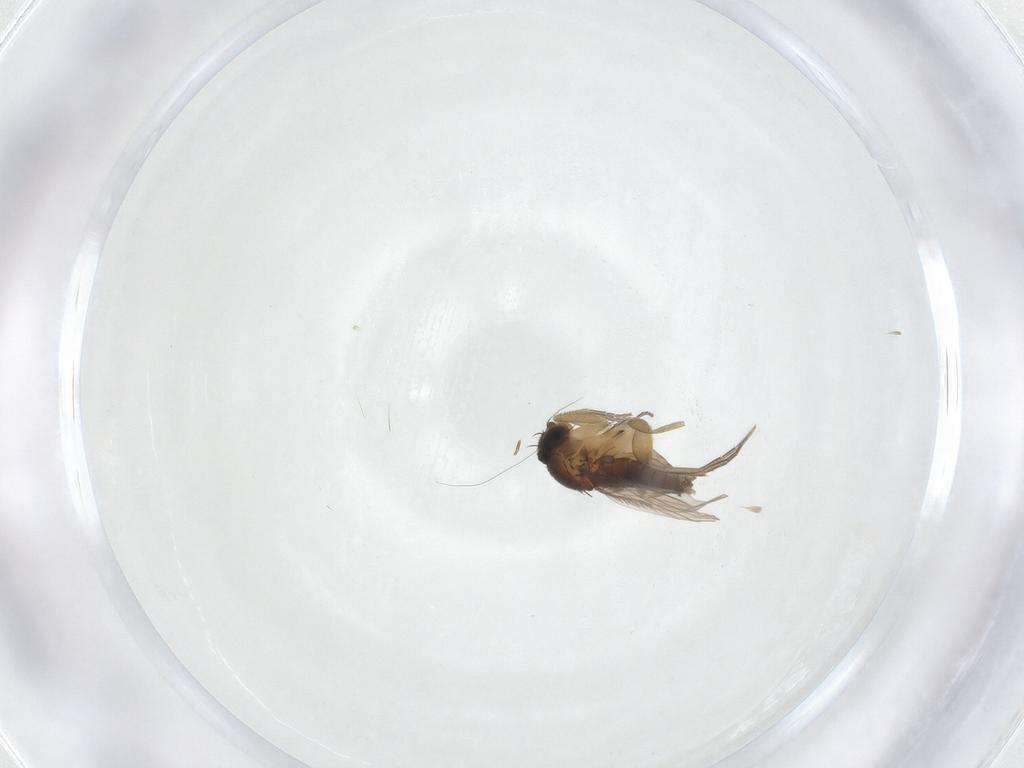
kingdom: Animalia
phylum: Arthropoda
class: Insecta
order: Diptera
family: Phoridae
